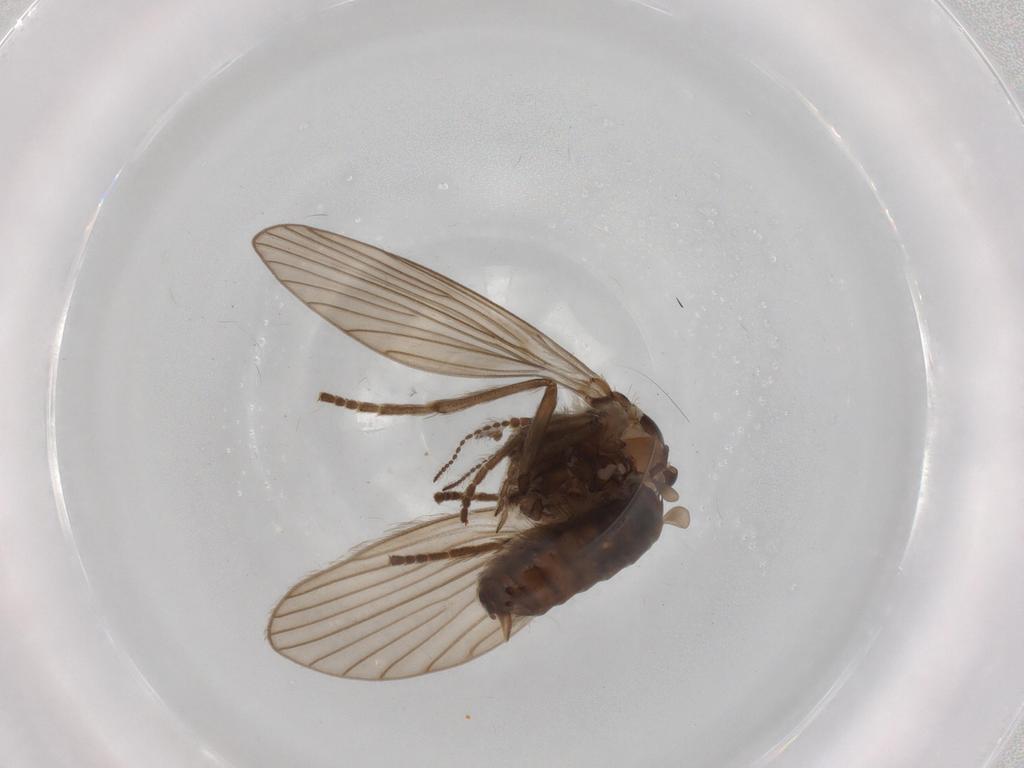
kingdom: Animalia
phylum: Arthropoda
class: Insecta
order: Diptera
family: Psychodidae
